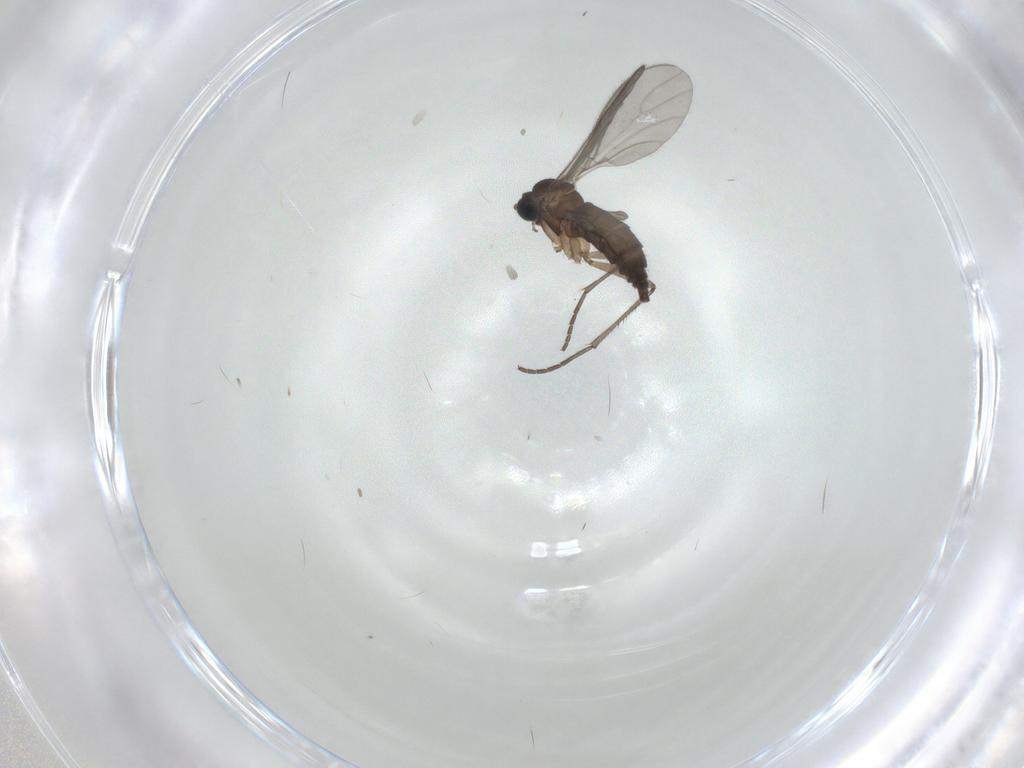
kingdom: Animalia
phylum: Arthropoda
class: Insecta
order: Diptera
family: Sciaridae
